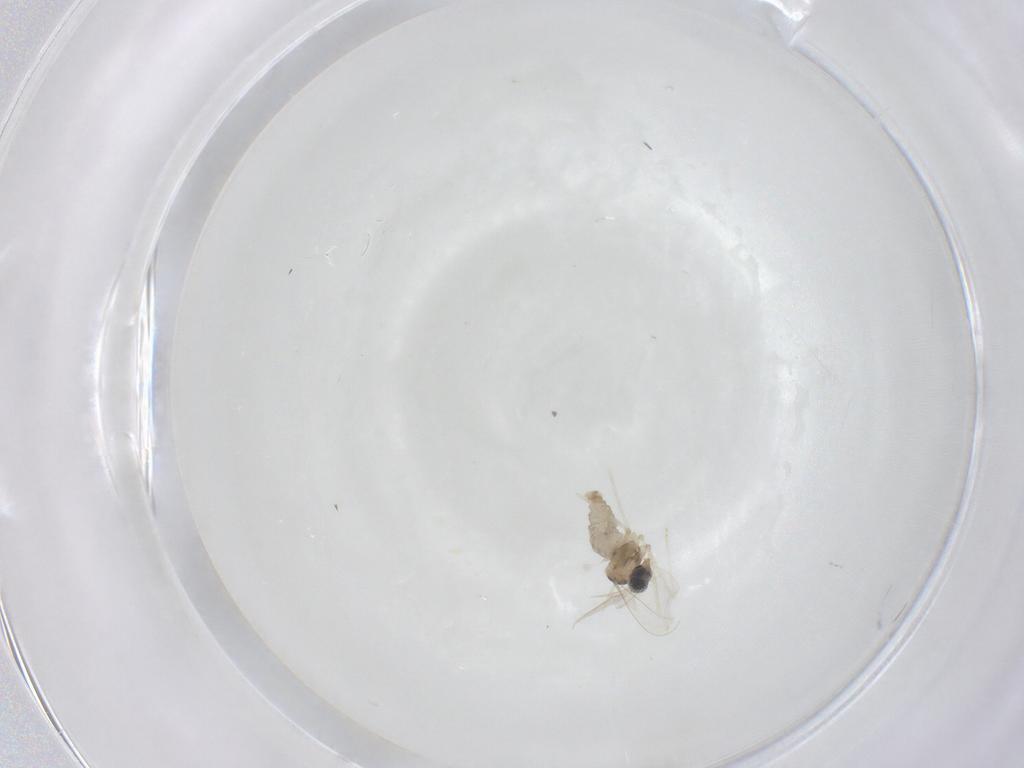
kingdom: Animalia
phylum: Arthropoda
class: Insecta
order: Diptera
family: Cecidomyiidae
